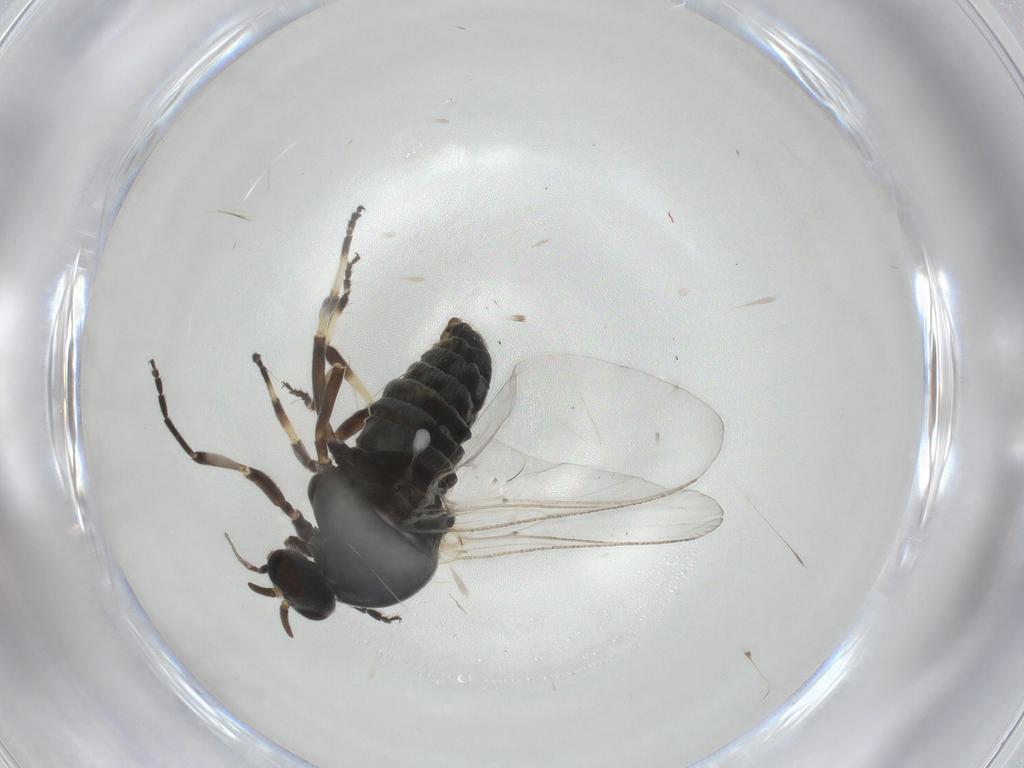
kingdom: Animalia
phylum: Arthropoda
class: Insecta
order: Diptera
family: Simuliidae
